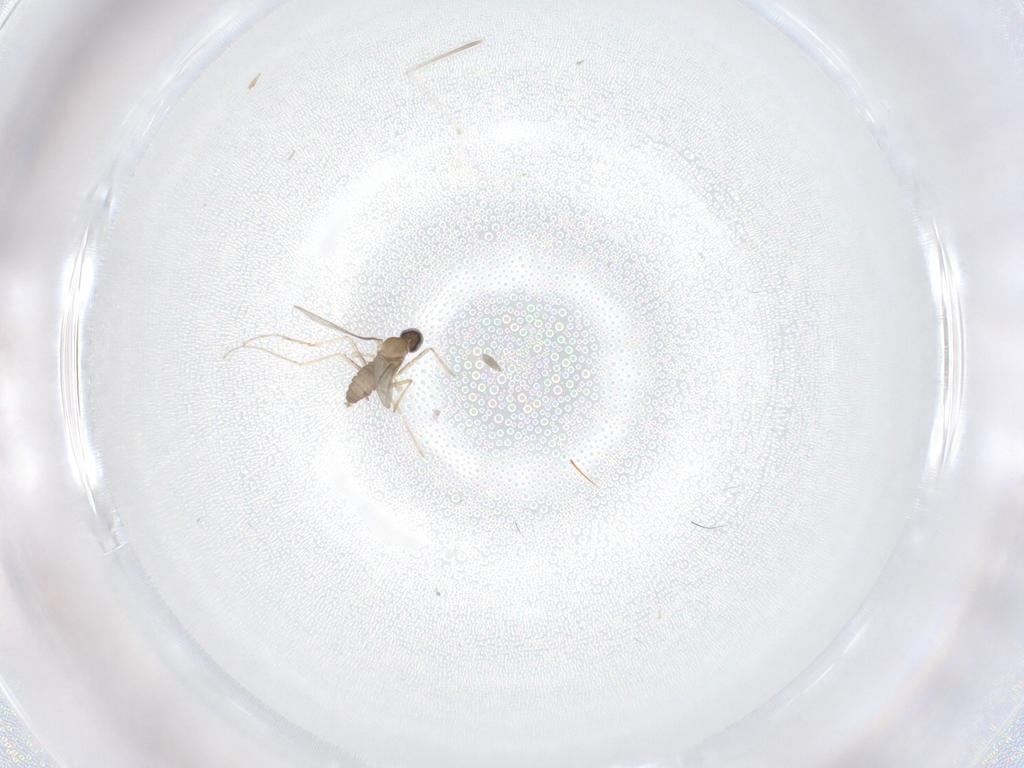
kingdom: Animalia
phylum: Arthropoda
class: Insecta
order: Diptera
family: Cecidomyiidae
